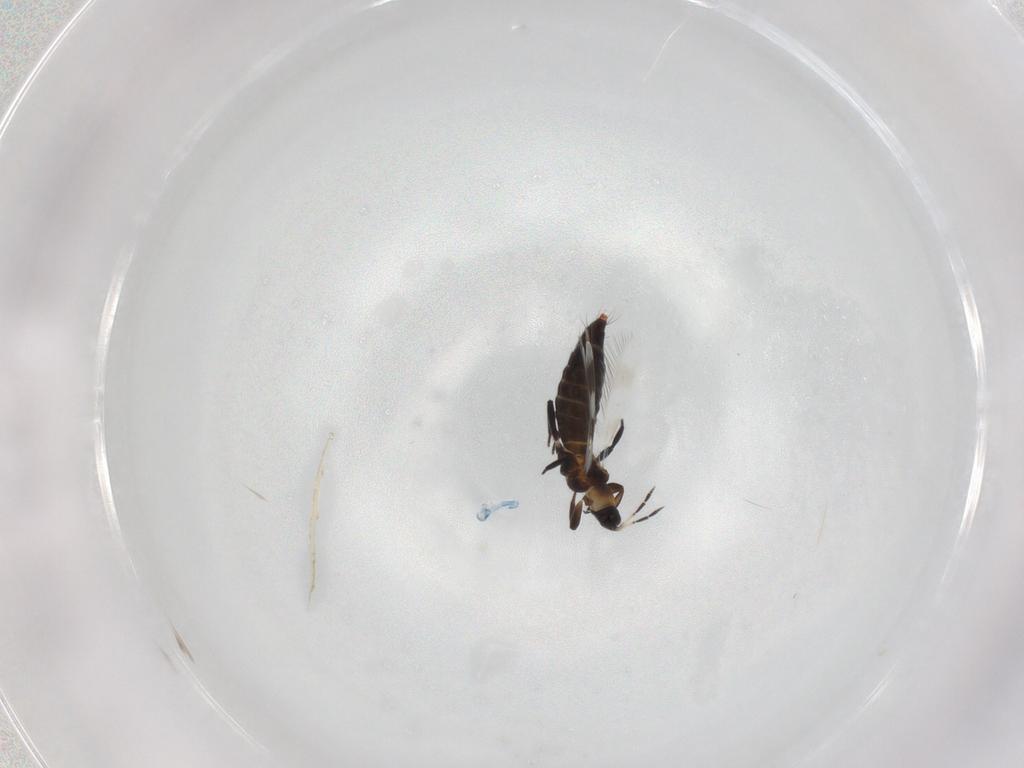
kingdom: Animalia
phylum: Arthropoda
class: Insecta
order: Thysanoptera
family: Aeolothripidae
